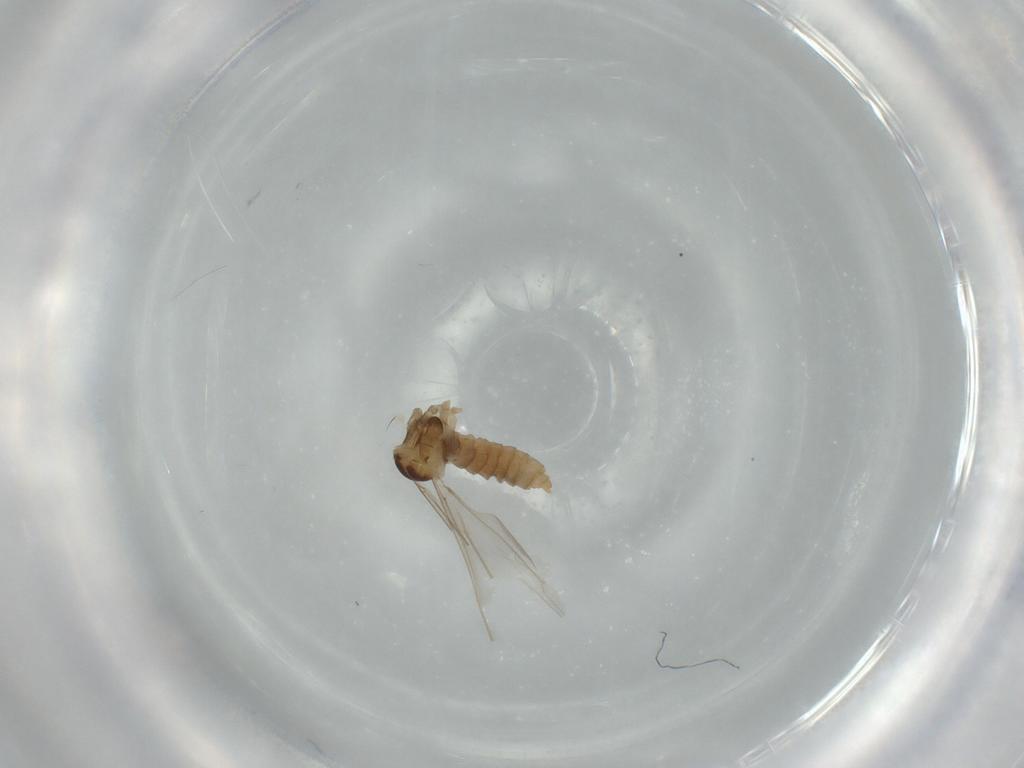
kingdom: Animalia
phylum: Arthropoda
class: Insecta
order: Diptera
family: Cecidomyiidae
